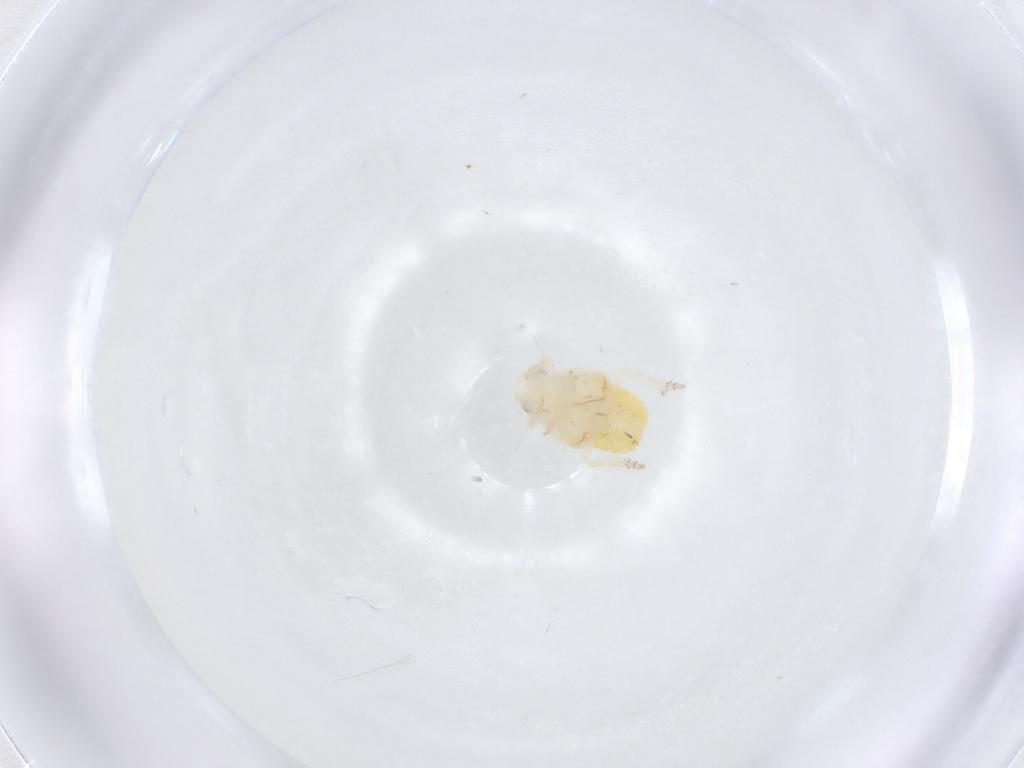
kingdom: Animalia
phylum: Arthropoda
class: Insecta
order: Hemiptera
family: Fulgoroidea_incertae_sedis
